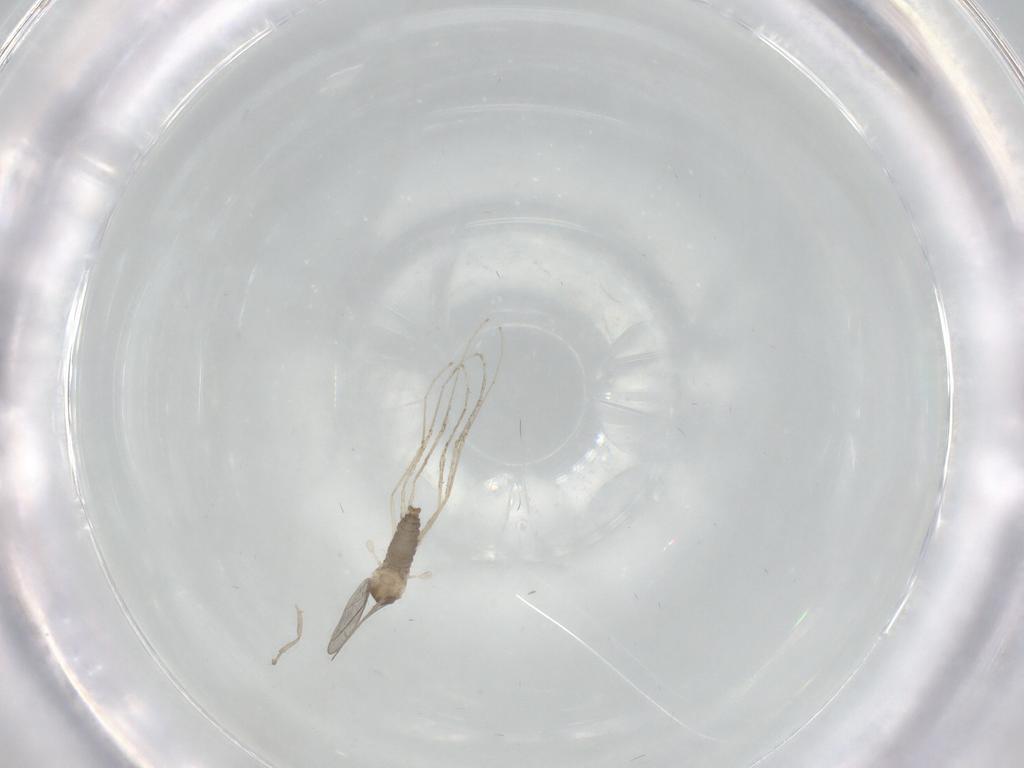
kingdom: Animalia
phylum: Arthropoda
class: Insecta
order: Diptera
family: Cecidomyiidae
